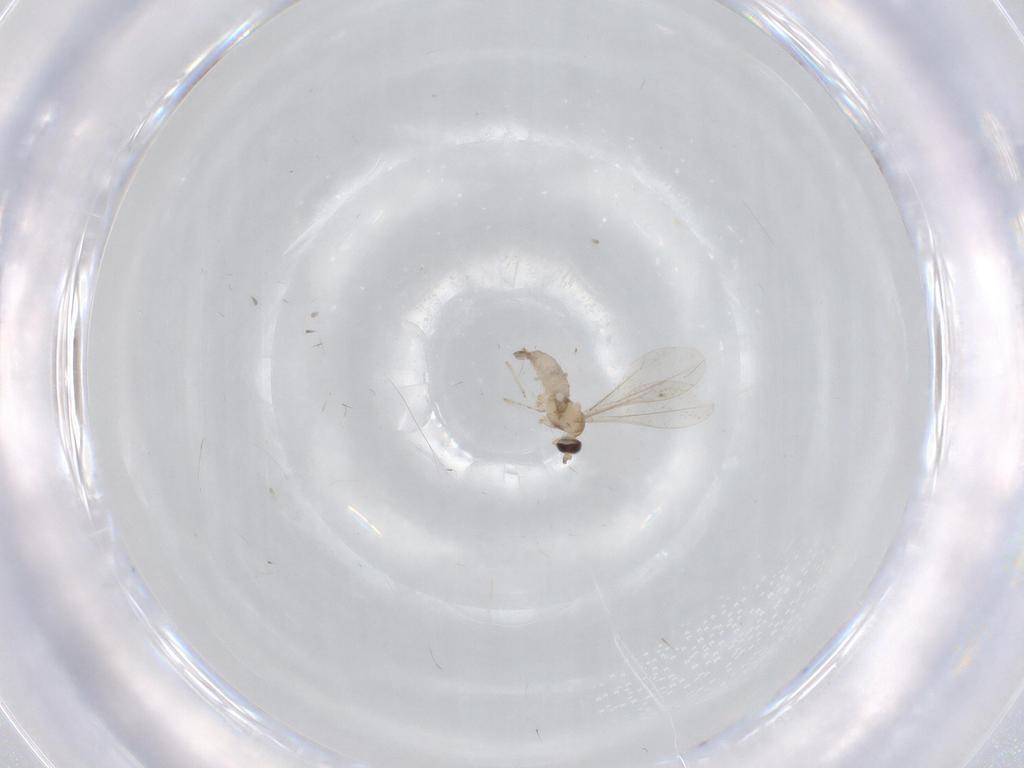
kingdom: Animalia
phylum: Arthropoda
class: Insecta
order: Diptera
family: Cecidomyiidae
